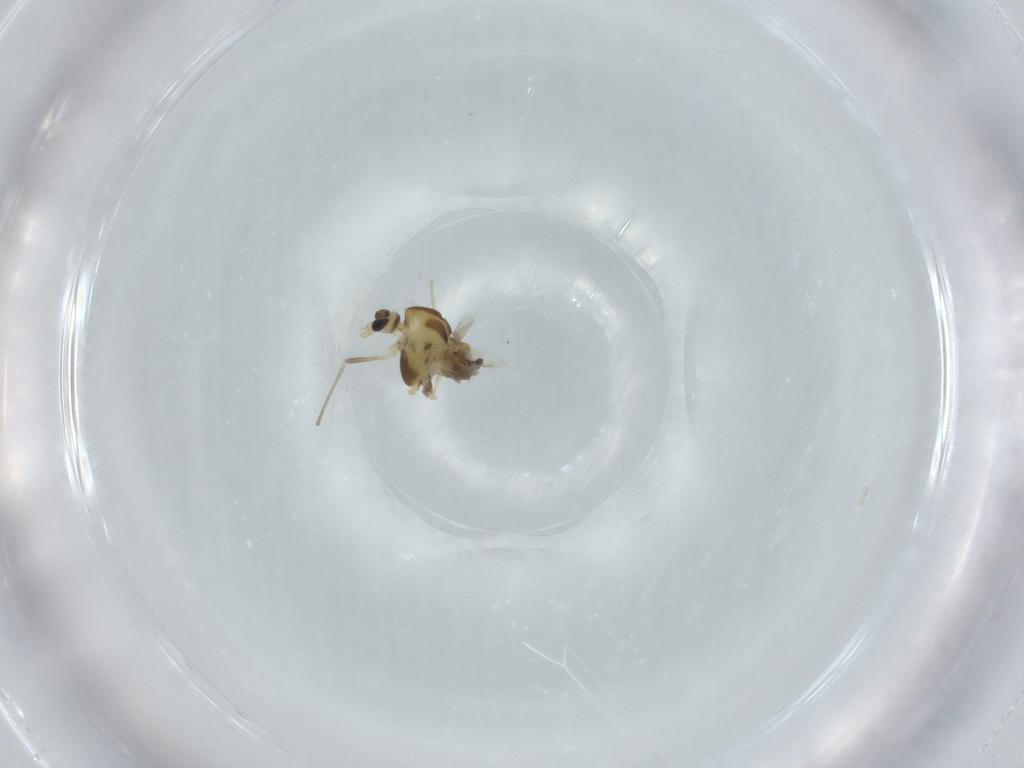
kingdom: Animalia
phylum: Arthropoda
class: Insecta
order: Diptera
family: Chironomidae
